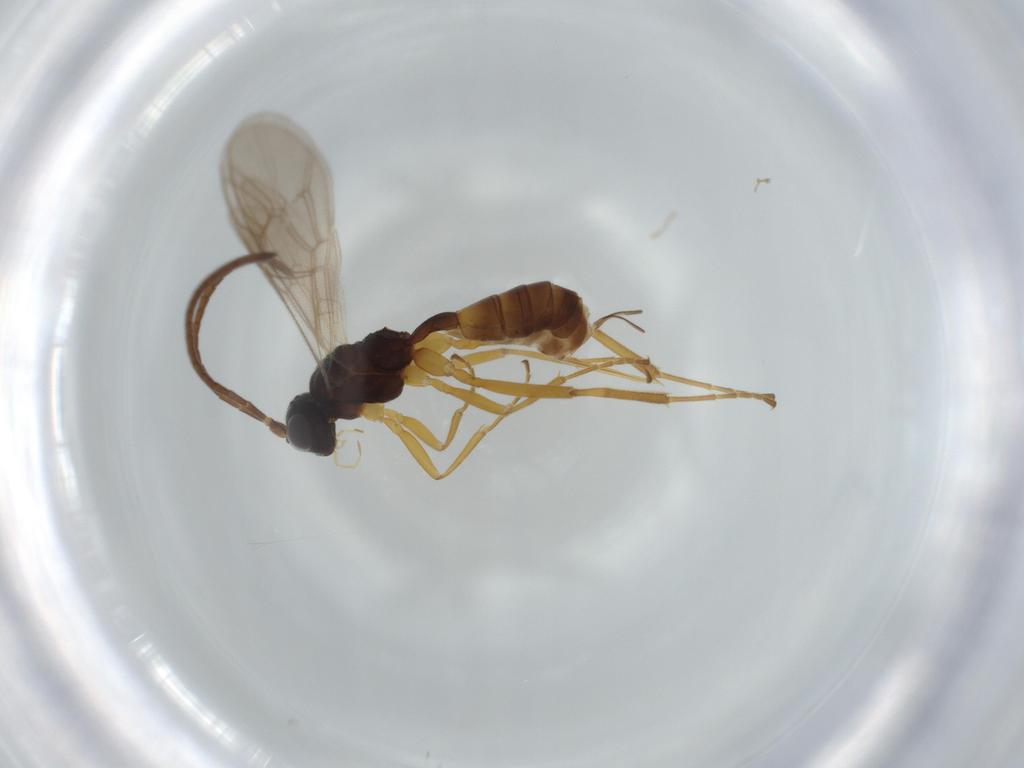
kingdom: Animalia
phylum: Arthropoda
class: Insecta
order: Hymenoptera
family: Ichneumonidae
